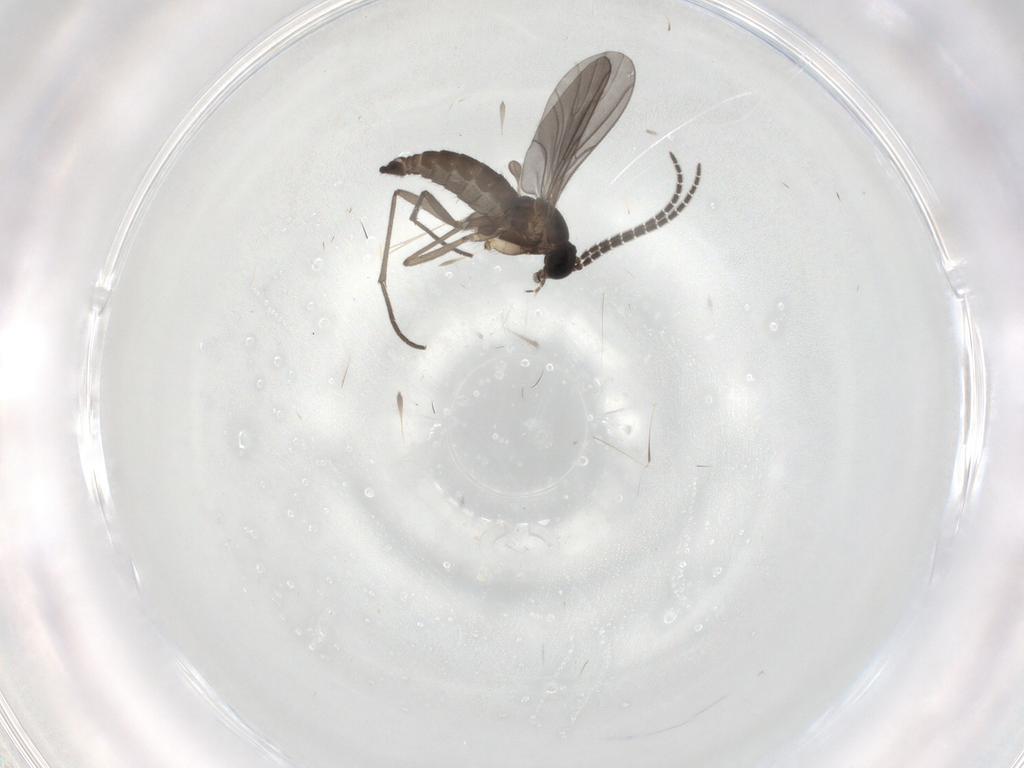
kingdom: Animalia
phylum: Arthropoda
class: Insecta
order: Diptera
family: Sciaridae
